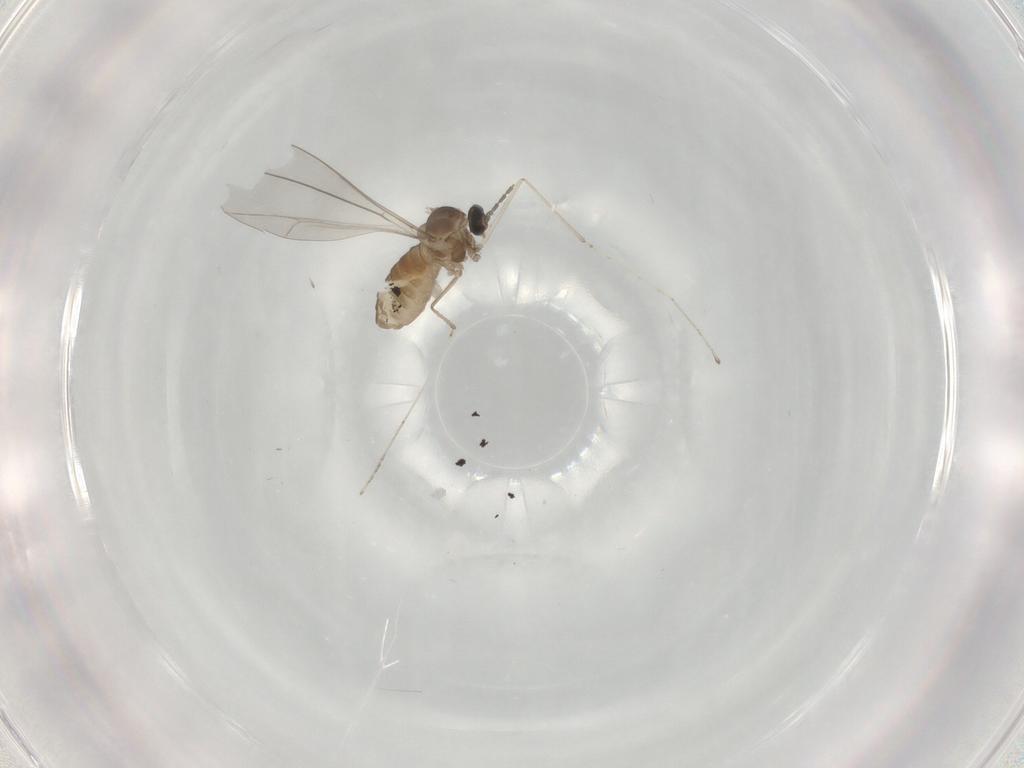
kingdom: Animalia
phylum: Arthropoda
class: Insecta
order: Diptera
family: Cecidomyiidae
